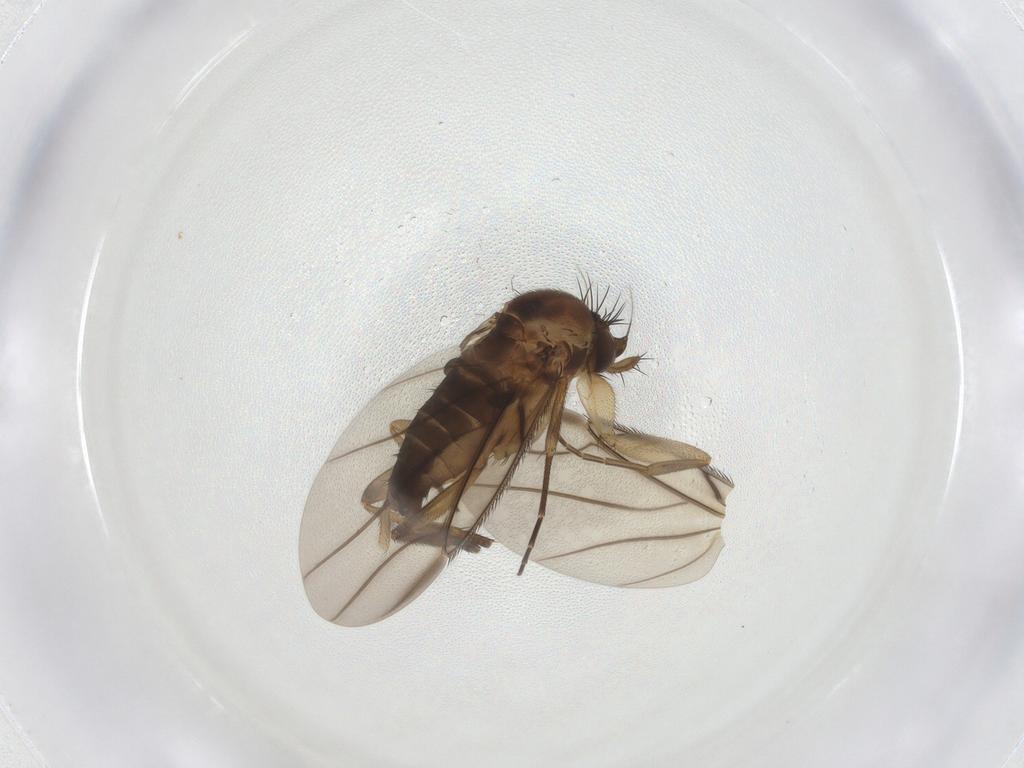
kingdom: Animalia
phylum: Arthropoda
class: Insecta
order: Diptera
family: Phoridae
